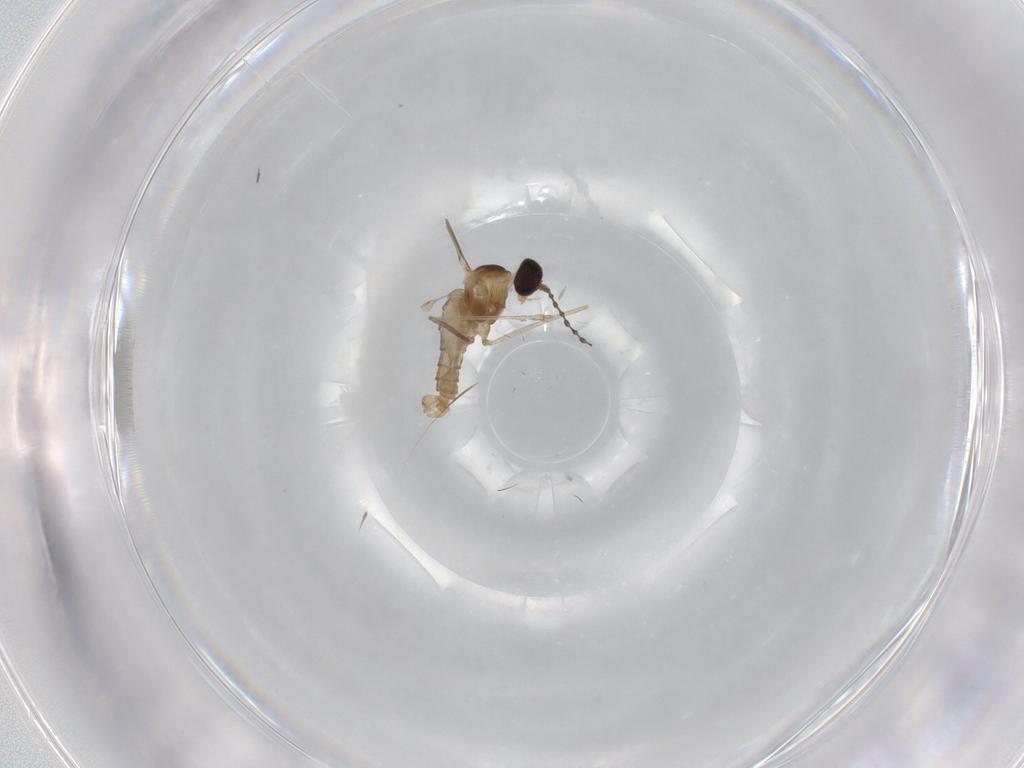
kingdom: Animalia
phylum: Arthropoda
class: Insecta
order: Diptera
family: Cecidomyiidae
